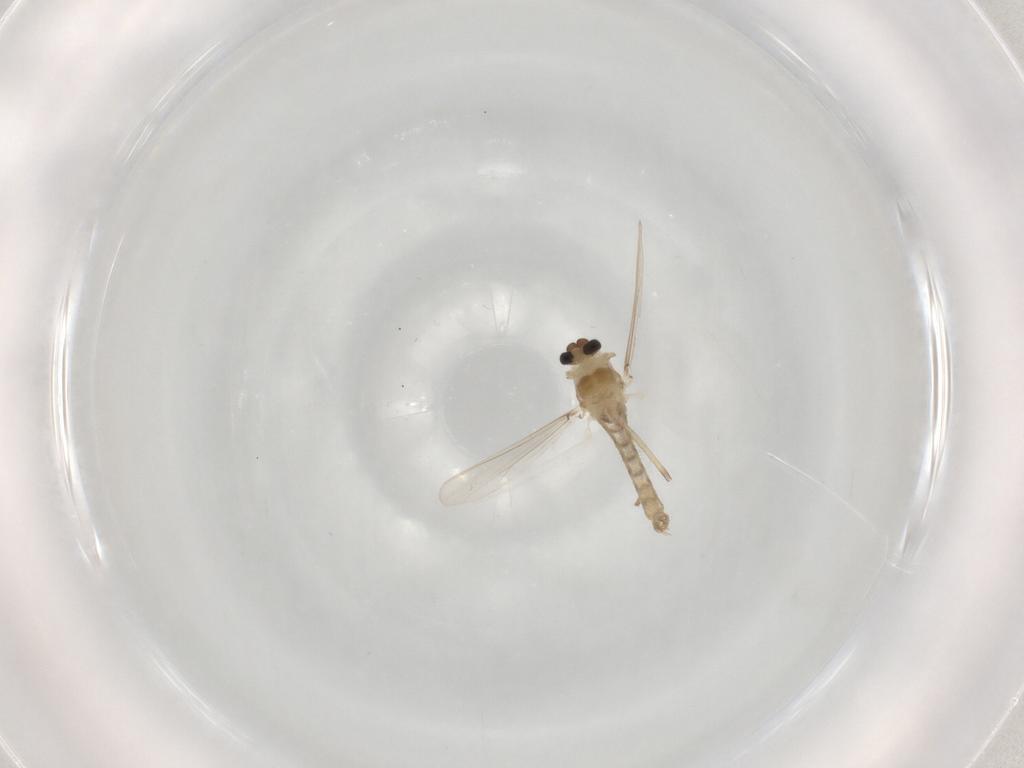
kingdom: Animalia
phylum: Arthropoda
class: Insecta
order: Diptera
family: Chironomidae
